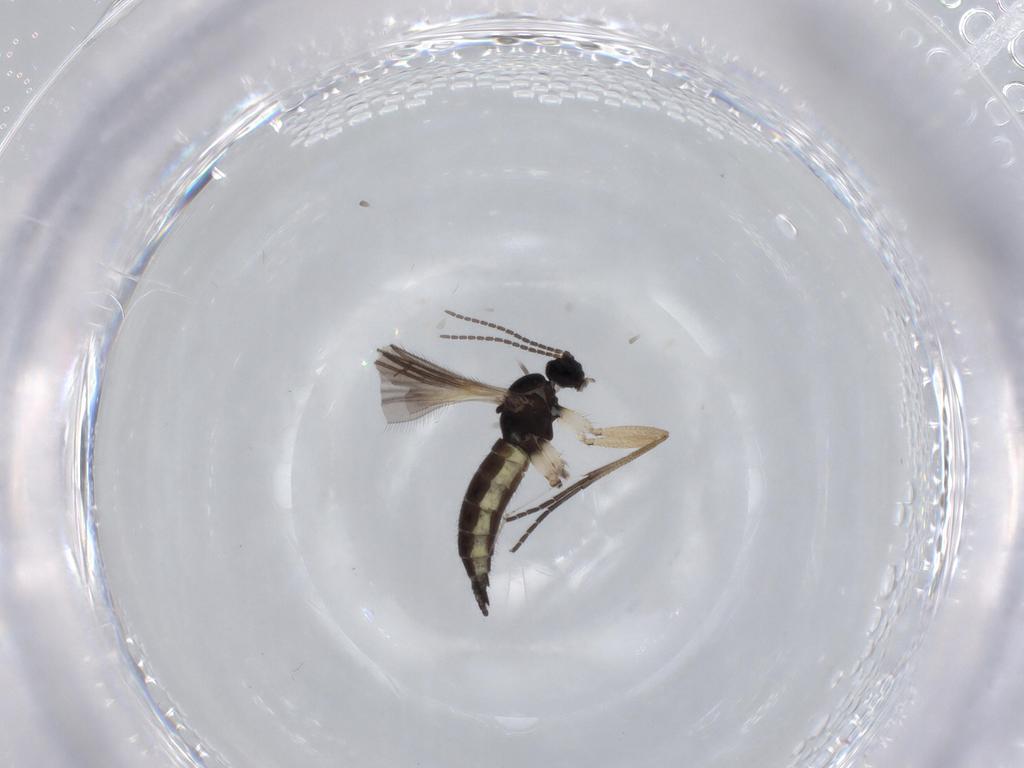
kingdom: Animalia
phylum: Arthropoda
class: Insecta
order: Diptera
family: Sciaridae
